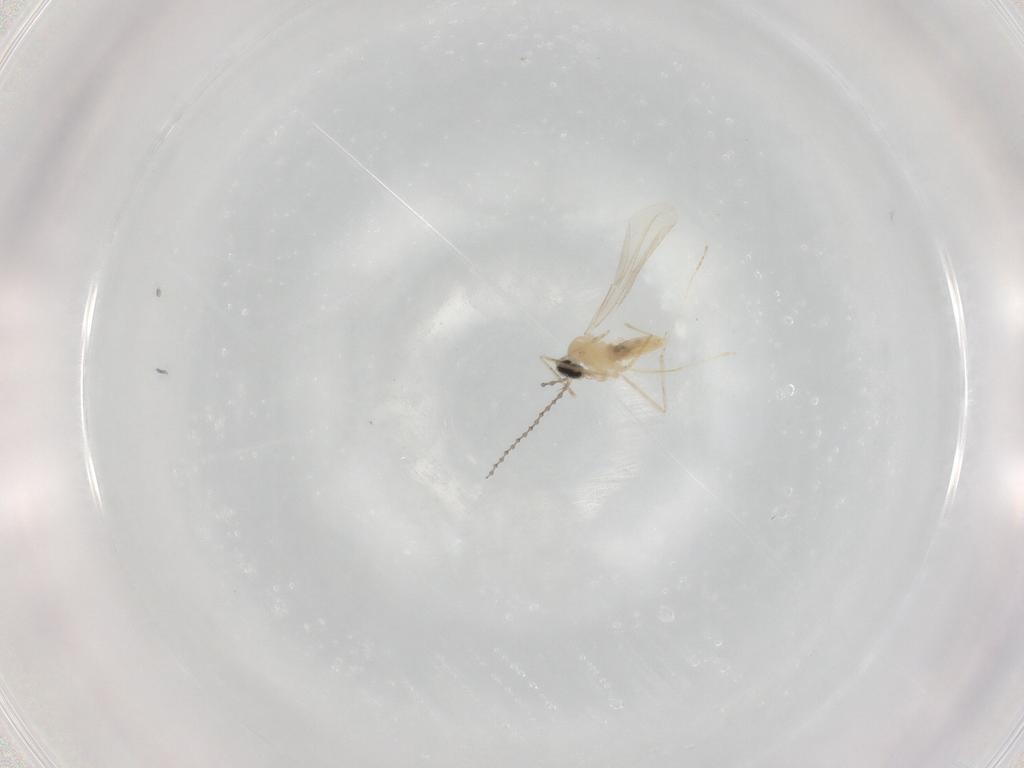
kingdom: Animalia
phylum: Arthropoda
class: Insecta
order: Diptera
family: Cecidomyiidae
